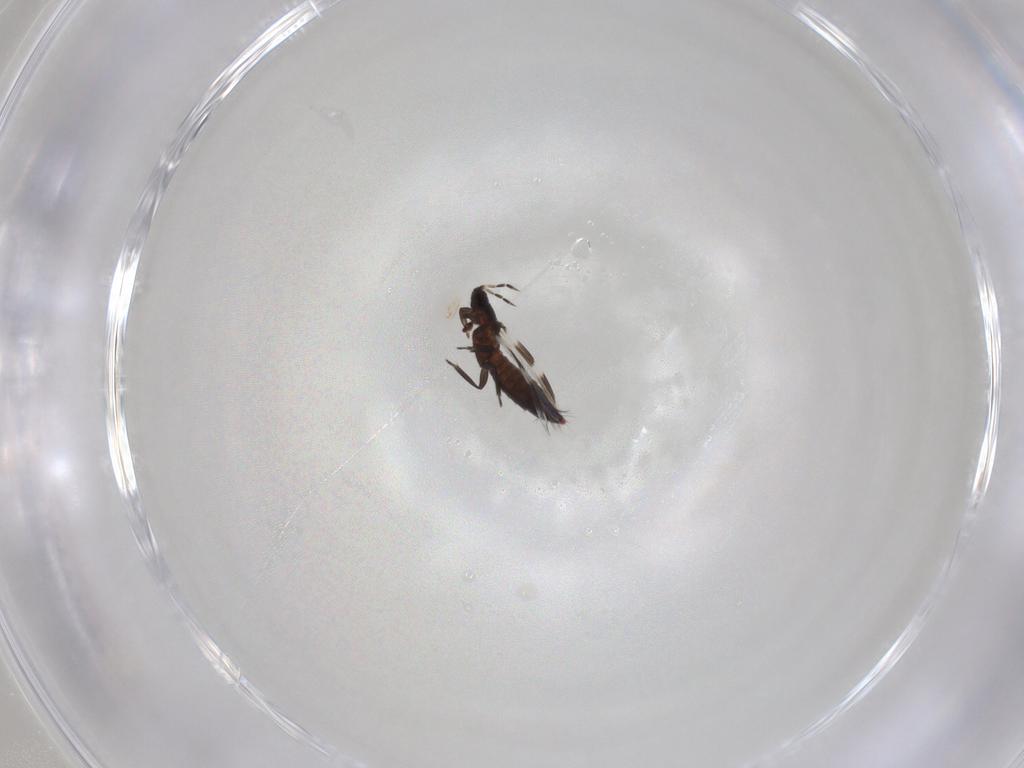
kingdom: Animalia
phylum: Arthropoda
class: Insecta
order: Thysanoptera
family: Aeolothripidae
